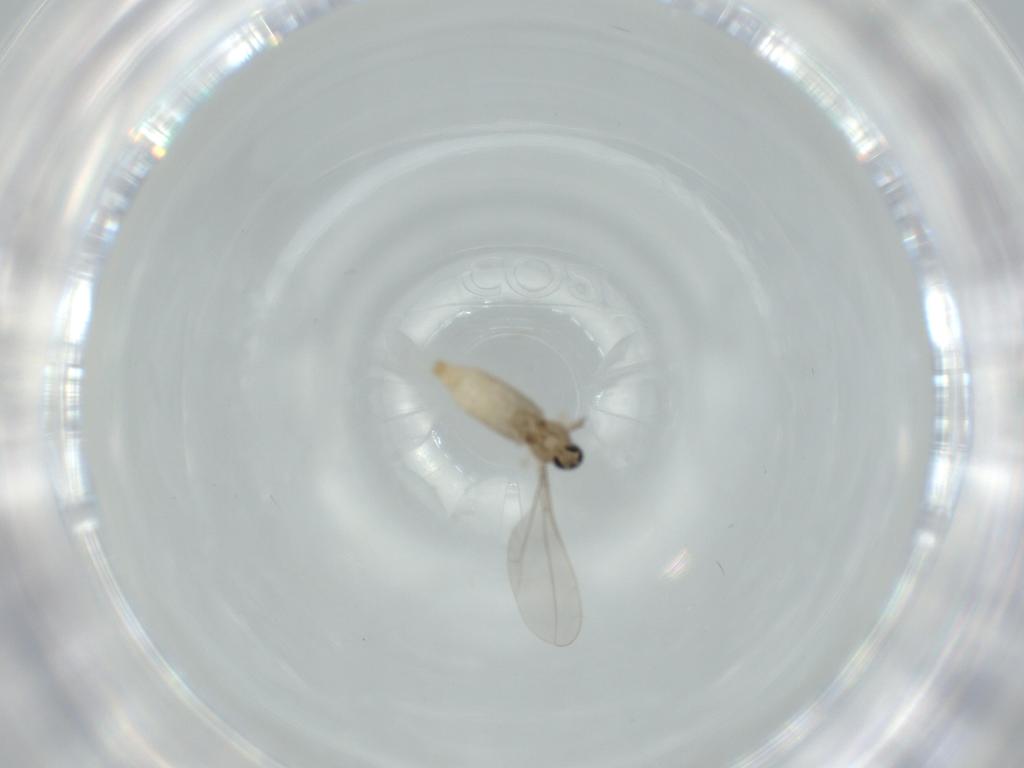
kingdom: Animalia
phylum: Arthropoda
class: Insecta
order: Diptera
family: Cecidomyiidae
